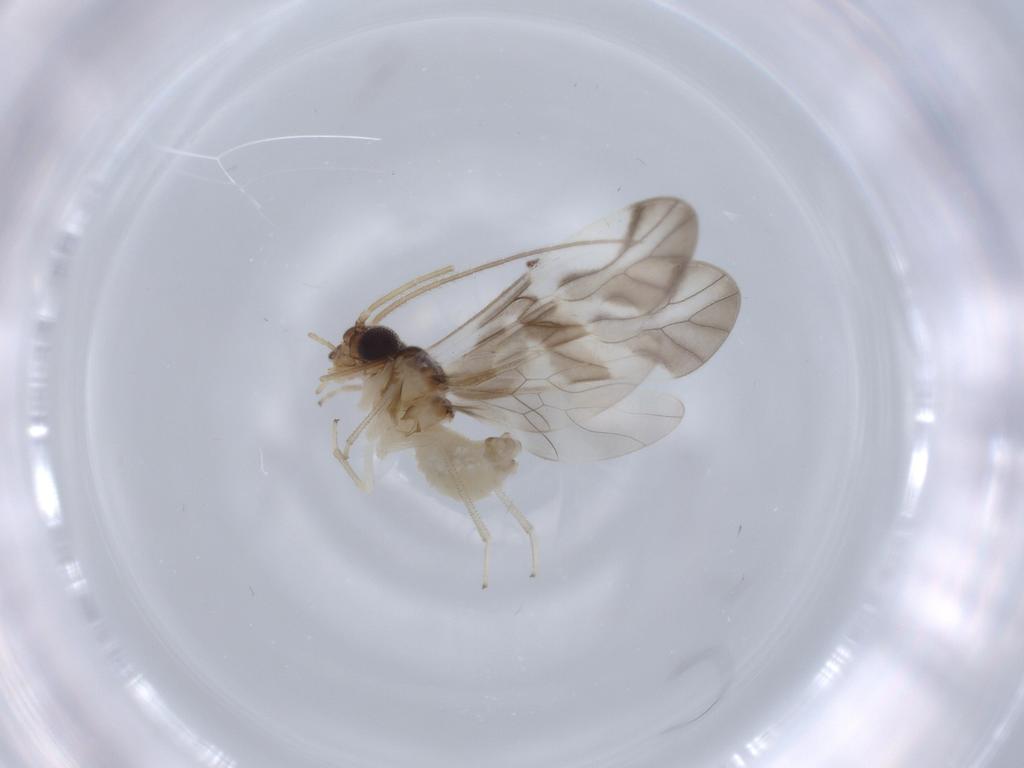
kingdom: Animalia
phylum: Arthropoda
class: Insecta
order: Psocodea
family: Caeciliusidae
